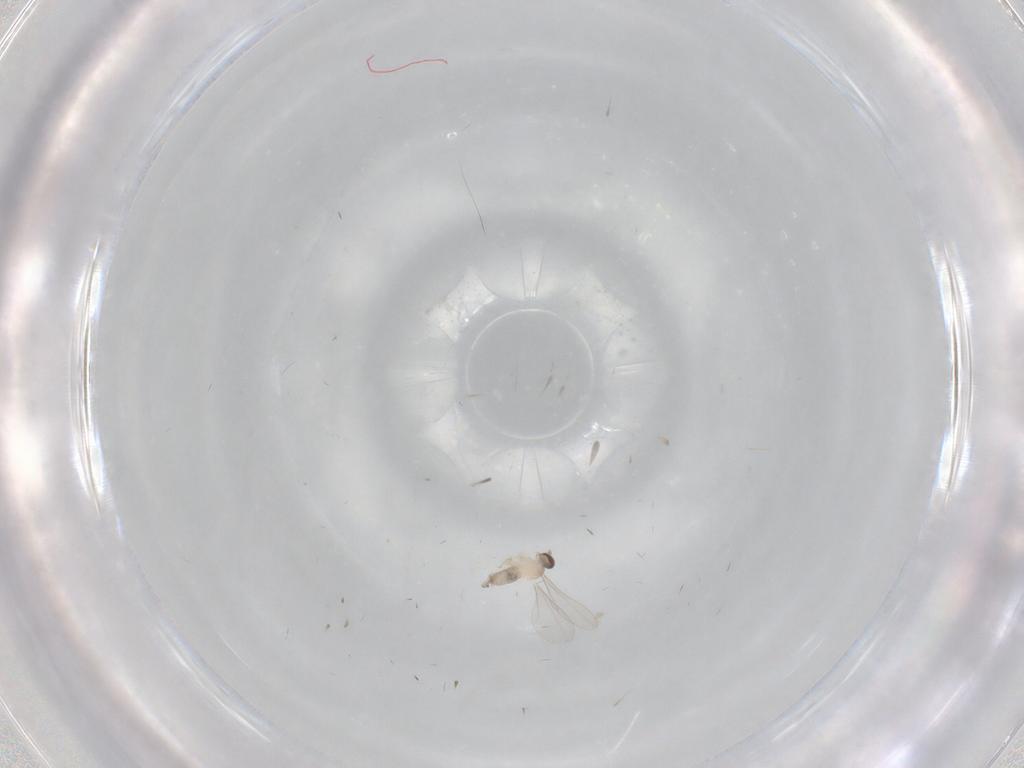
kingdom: Animalia
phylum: Arthropoda
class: Insecta
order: Diptera
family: Cecidomyiidae
